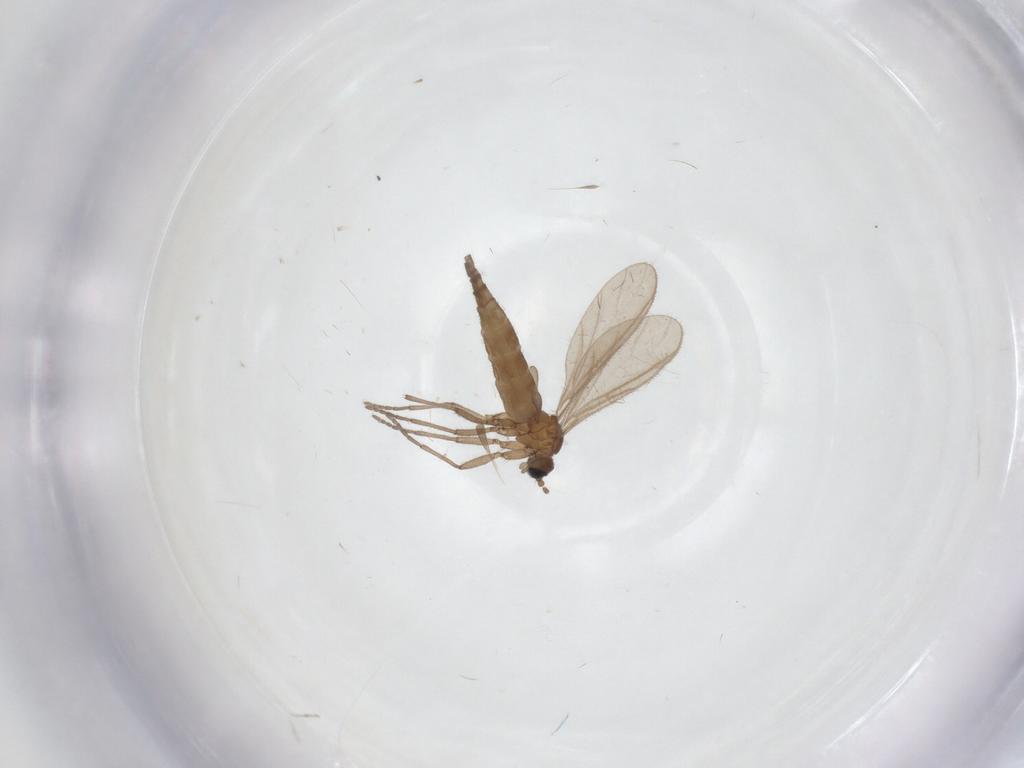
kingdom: Animalia
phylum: Arthropoda
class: Insecta
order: Diptera
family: Sciaridae
